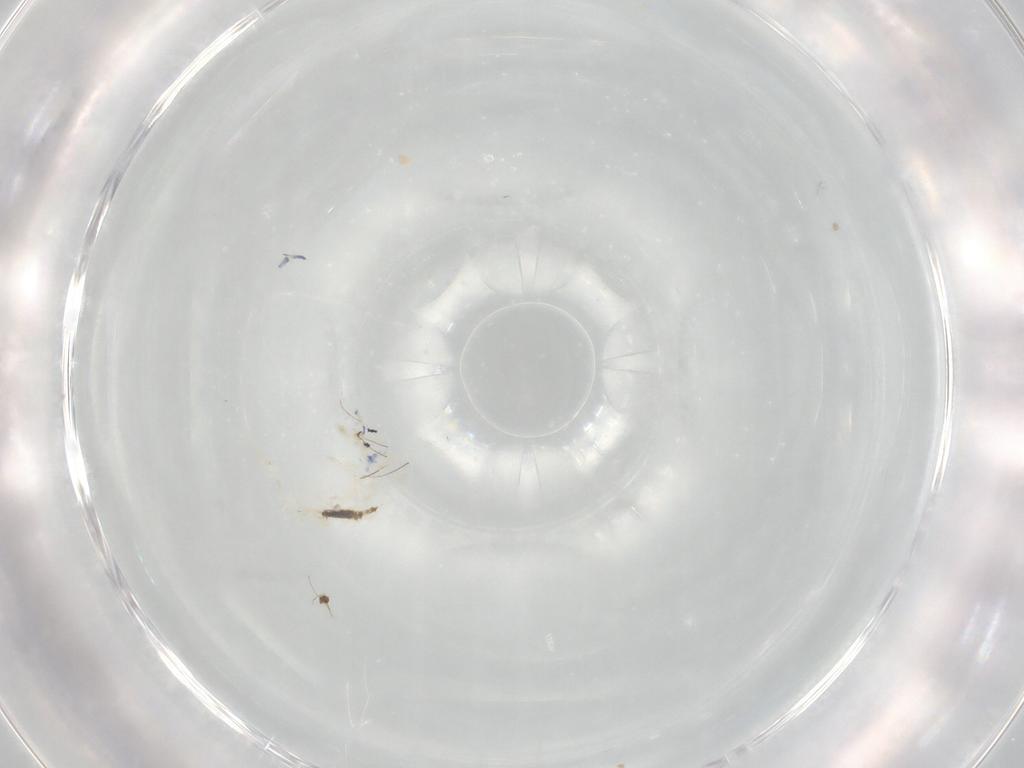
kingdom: Animalia
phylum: Arthropoda
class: Collembola
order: Entomobryomorpha
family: Entomobryidae
